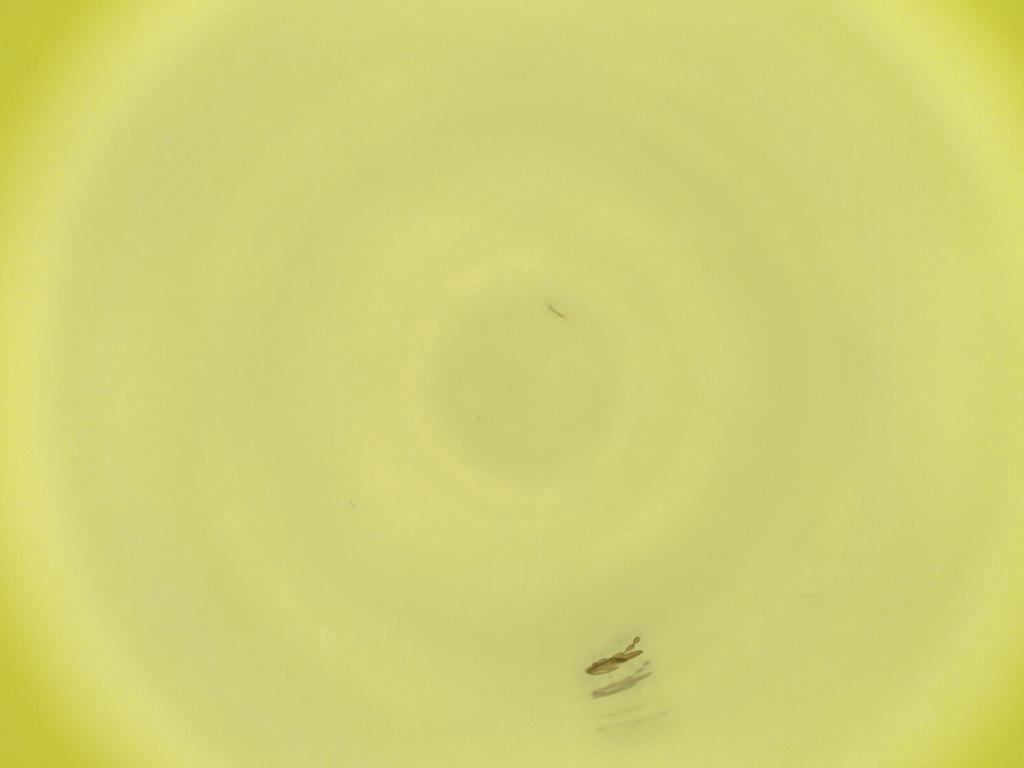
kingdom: Animalia
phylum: Arthropoda
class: Insecta
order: Diptera
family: Cecidomyiidae
